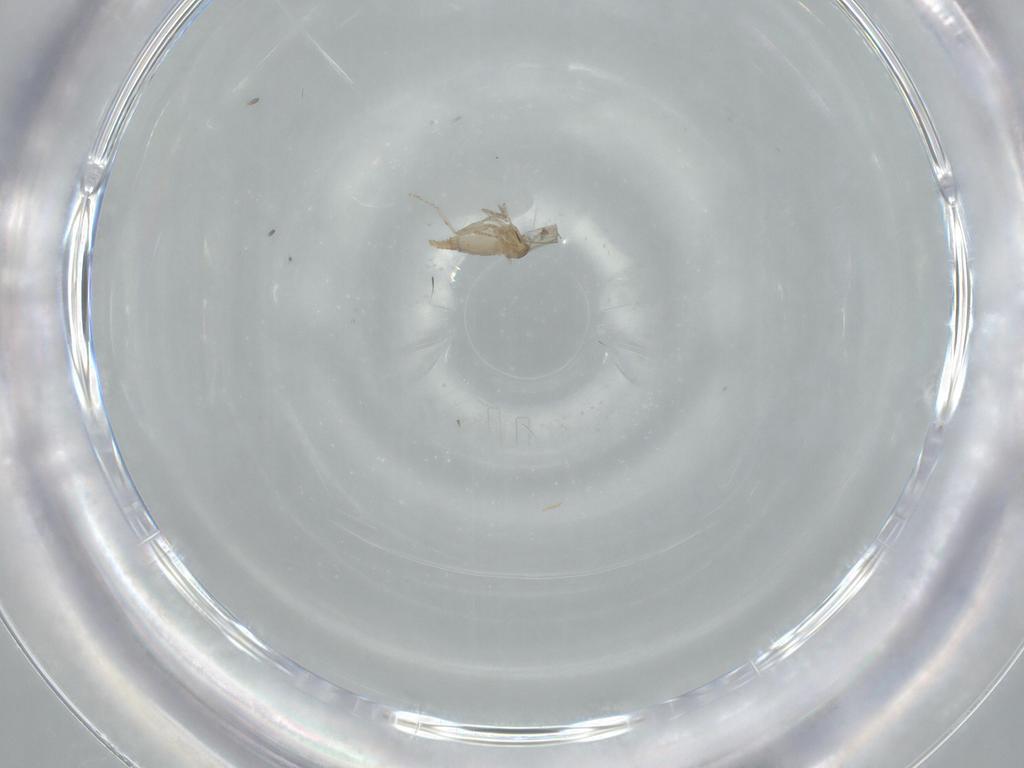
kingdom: Animalia
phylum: Arthropoda
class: Insecta
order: Diptera
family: Cecidomyiidae
